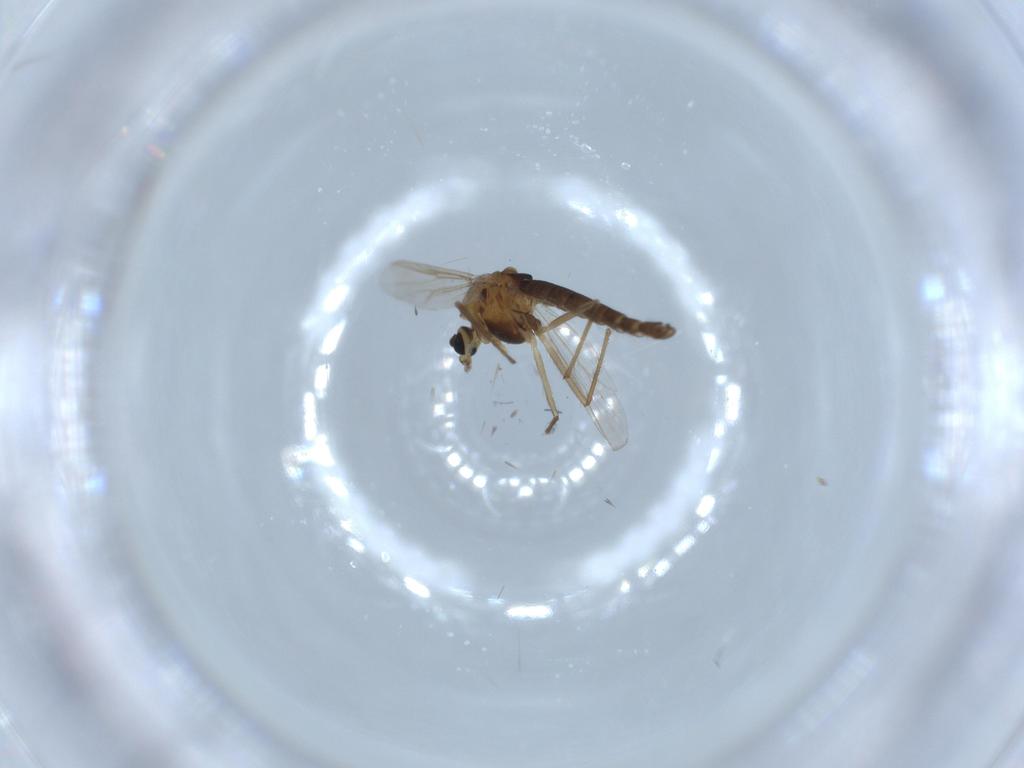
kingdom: Animalia
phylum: Arthropoda
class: Insecta
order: Diptera
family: Chironomidae
